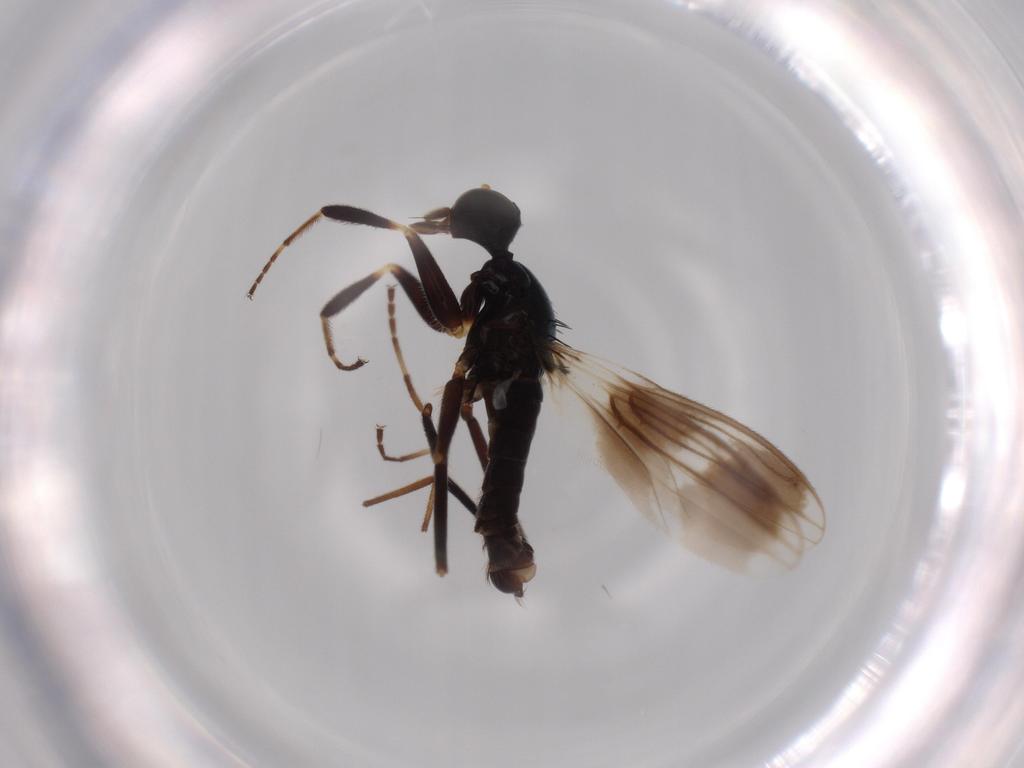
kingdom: Animalia
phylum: Arthropoda
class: Insecta
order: Diptera
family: Hybotidae
